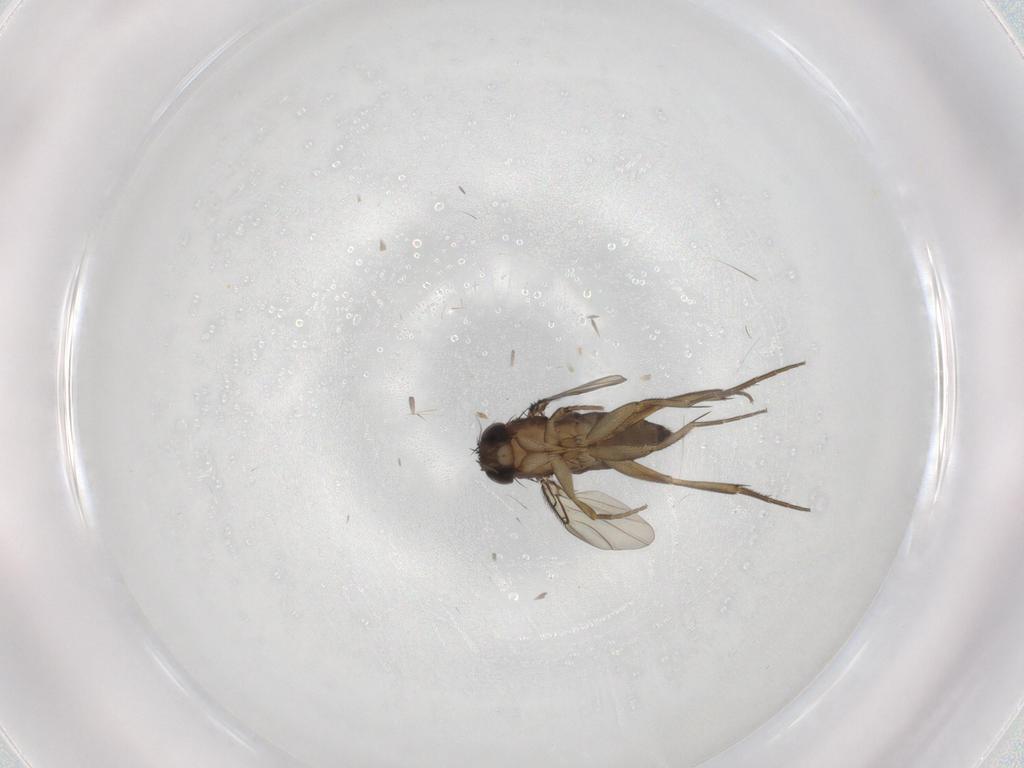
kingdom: Animalia
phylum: Arthropoda
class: Insecta
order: Diptera
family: Phoridae
